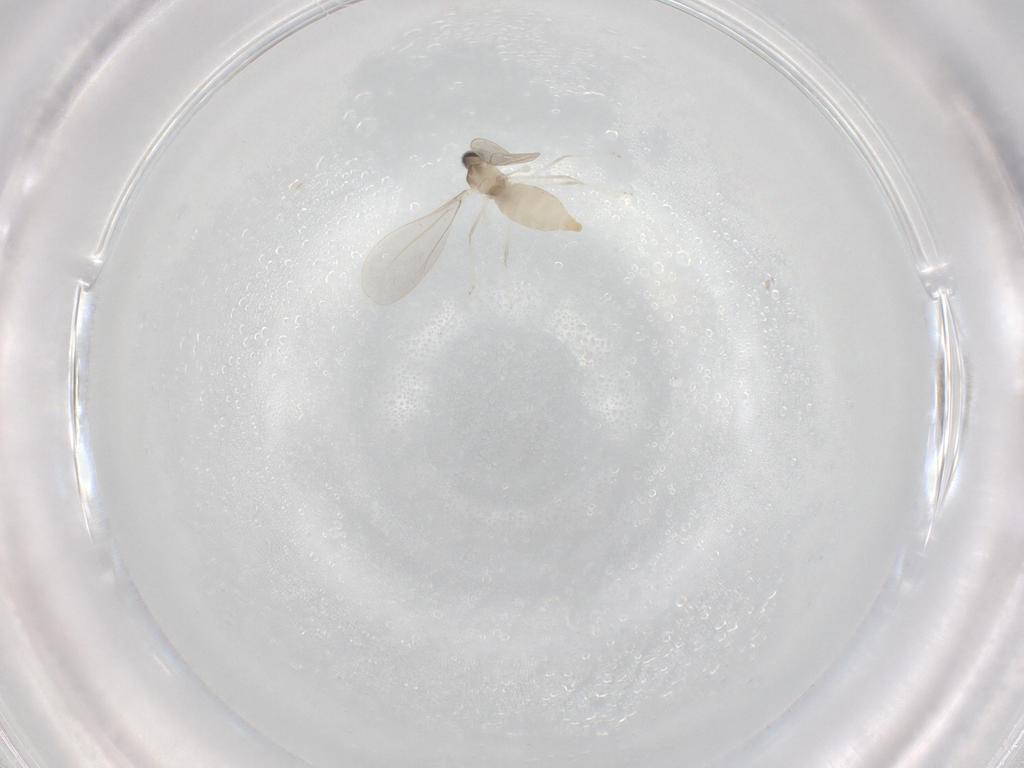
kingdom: Animalia
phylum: Arthropoda
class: Insecta
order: Diptera
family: Cecidomyiidae
